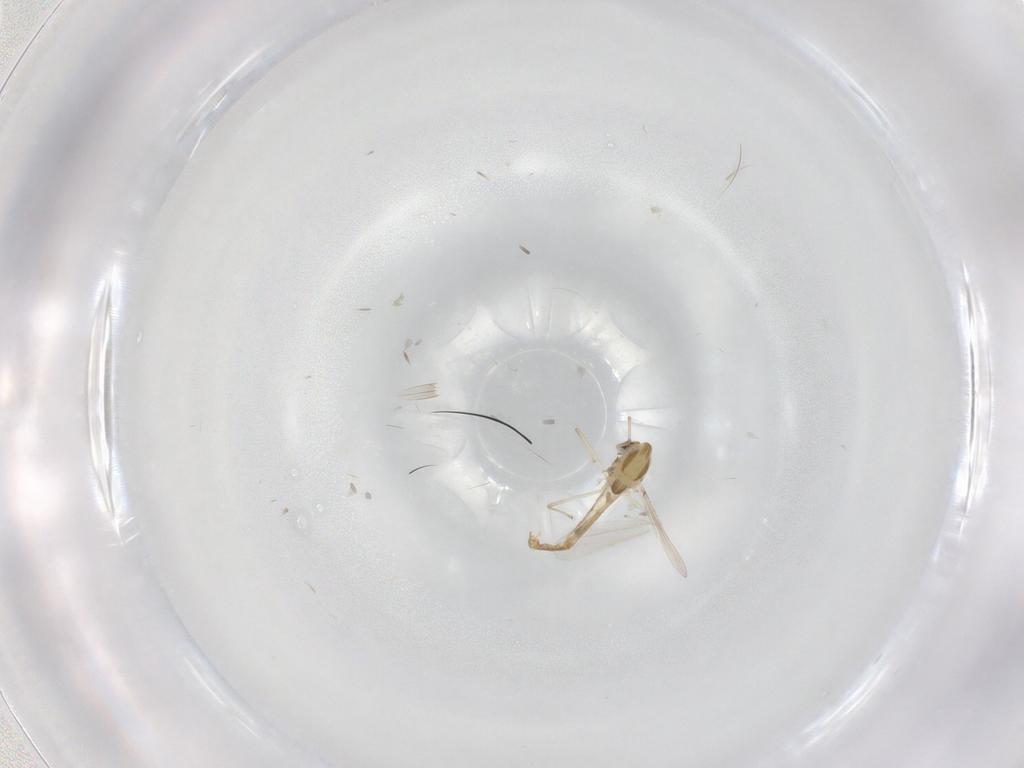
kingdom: Animalia
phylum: Arthropoda
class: Insecta
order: Diptera
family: Chironomidae
